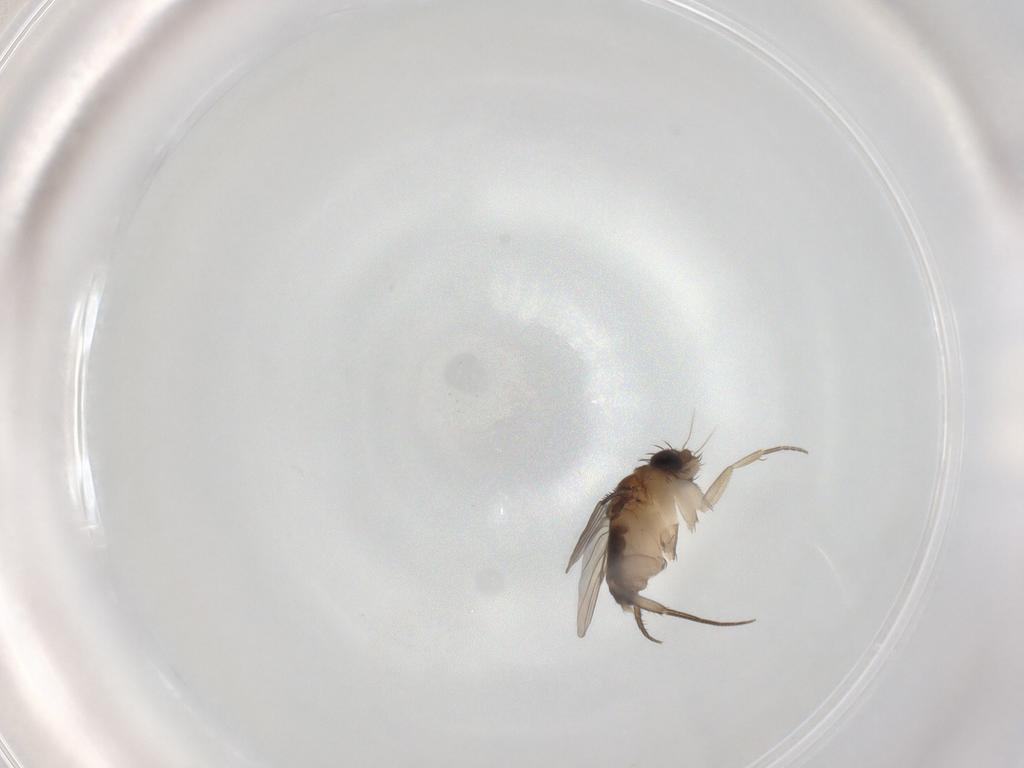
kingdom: Animalia
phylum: Arthropoda
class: Insecta
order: Diptera
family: Phoridae
